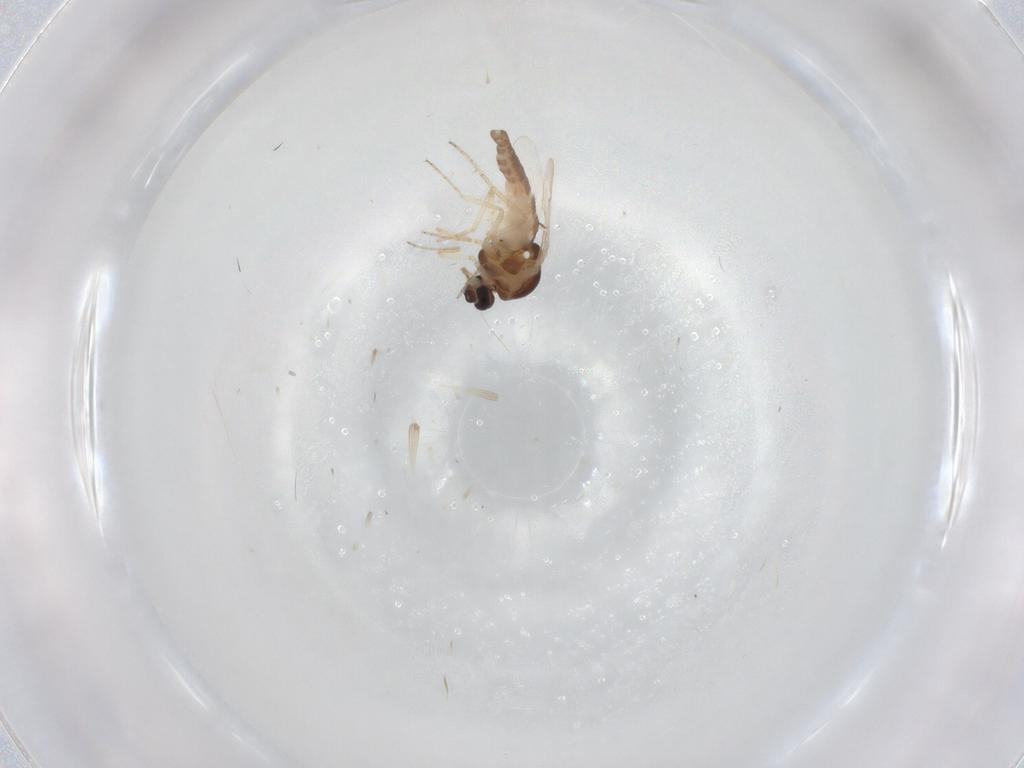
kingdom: Animalia
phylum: Arthropoda
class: Insecta
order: Diptera
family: Ceratopogonidae
